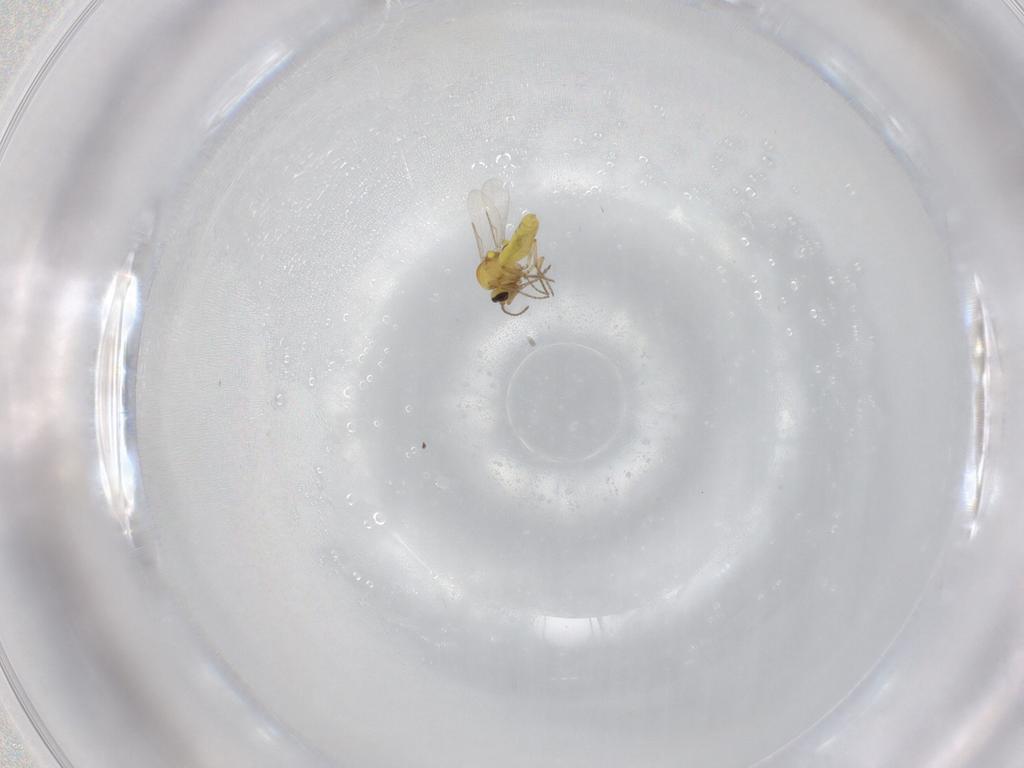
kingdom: Animalia
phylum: Arthropoda
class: Insecta
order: Diptera
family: Ceratopogonidae
